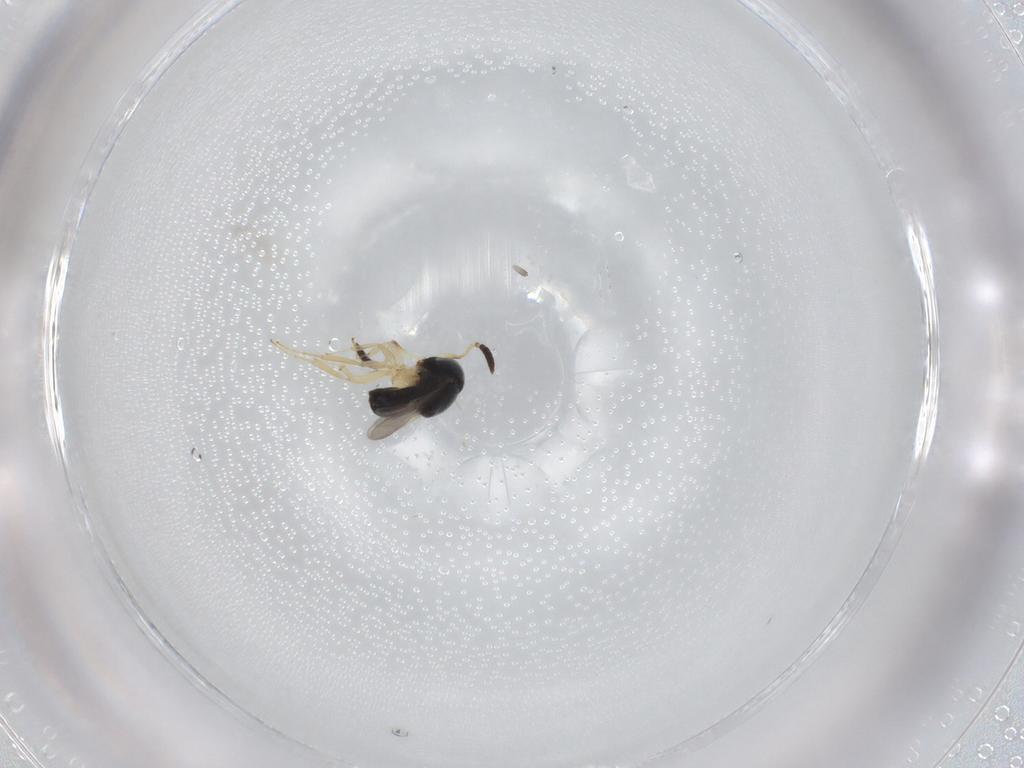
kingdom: Animalia
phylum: Arthropoda
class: Insecta
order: Hymenoptera
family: Scelionidae
